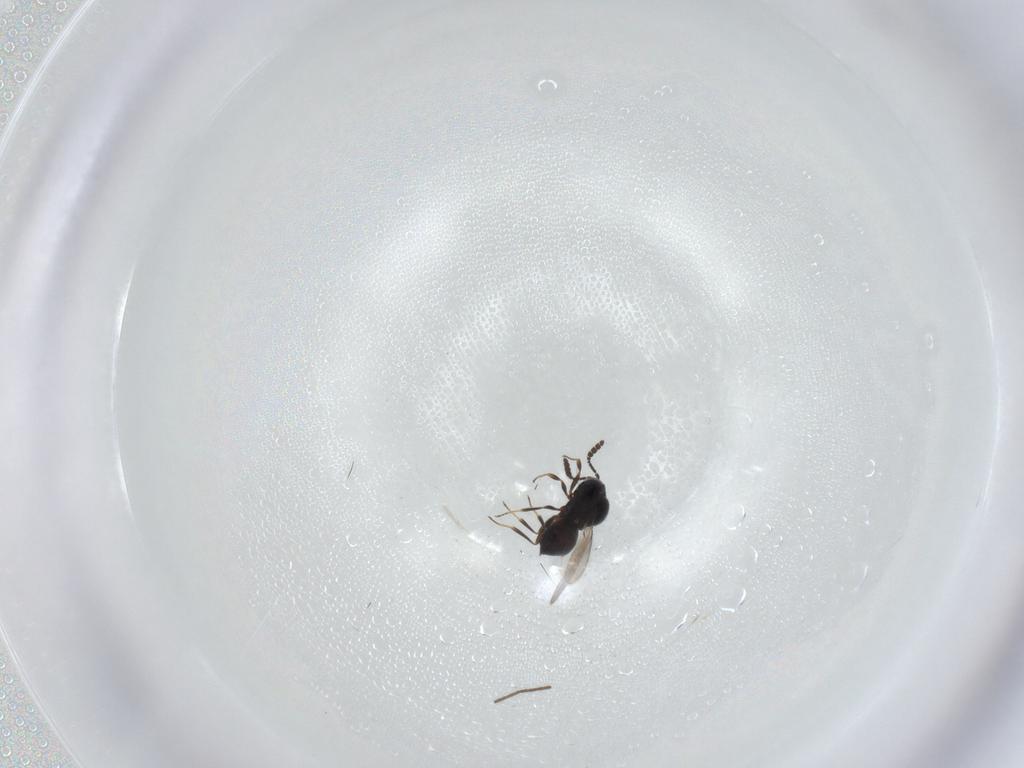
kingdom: Animalia
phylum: Arthropoda
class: Insecta
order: Hymenoptera
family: Scelionidae
